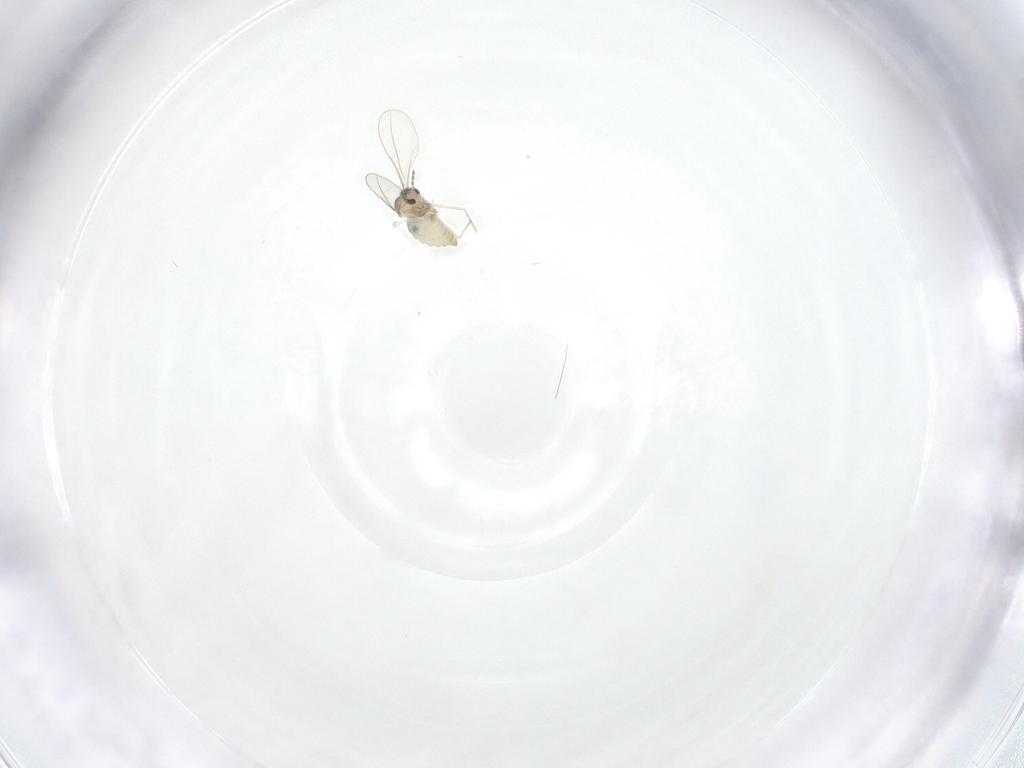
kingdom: Animalia
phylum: Arthropoda
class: Insecta
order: Diptera
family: Cecidomyiidae
